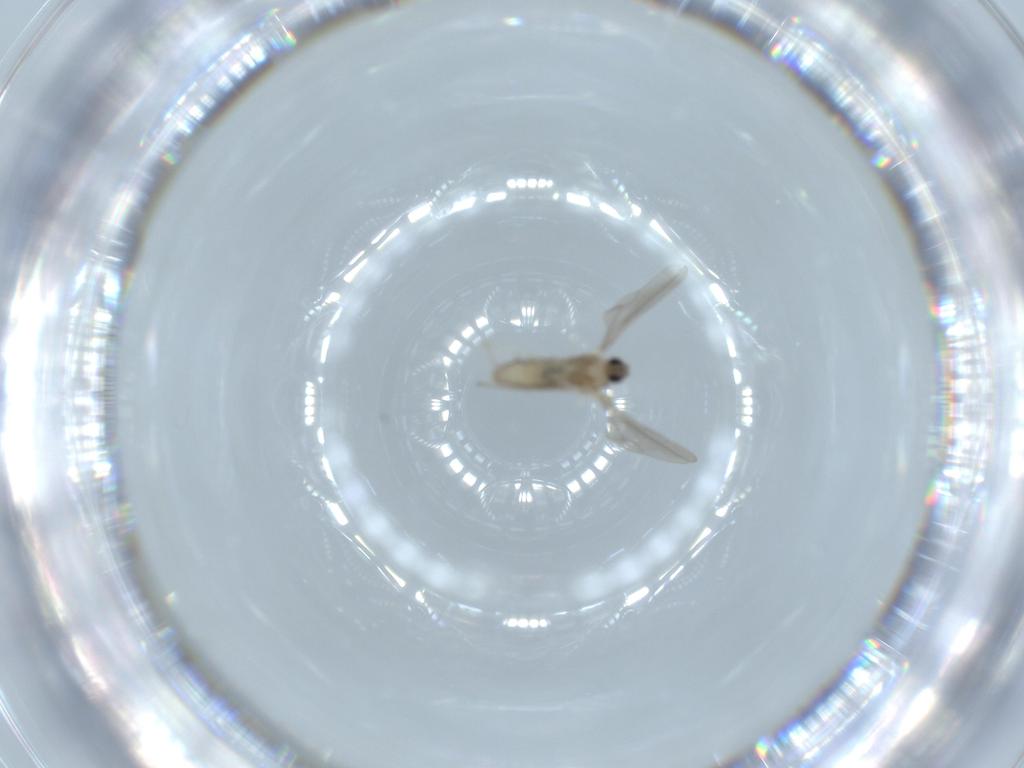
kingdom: Animalia
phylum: Arthropoda
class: Insecta
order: Diptera
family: Cecidomyiidae
